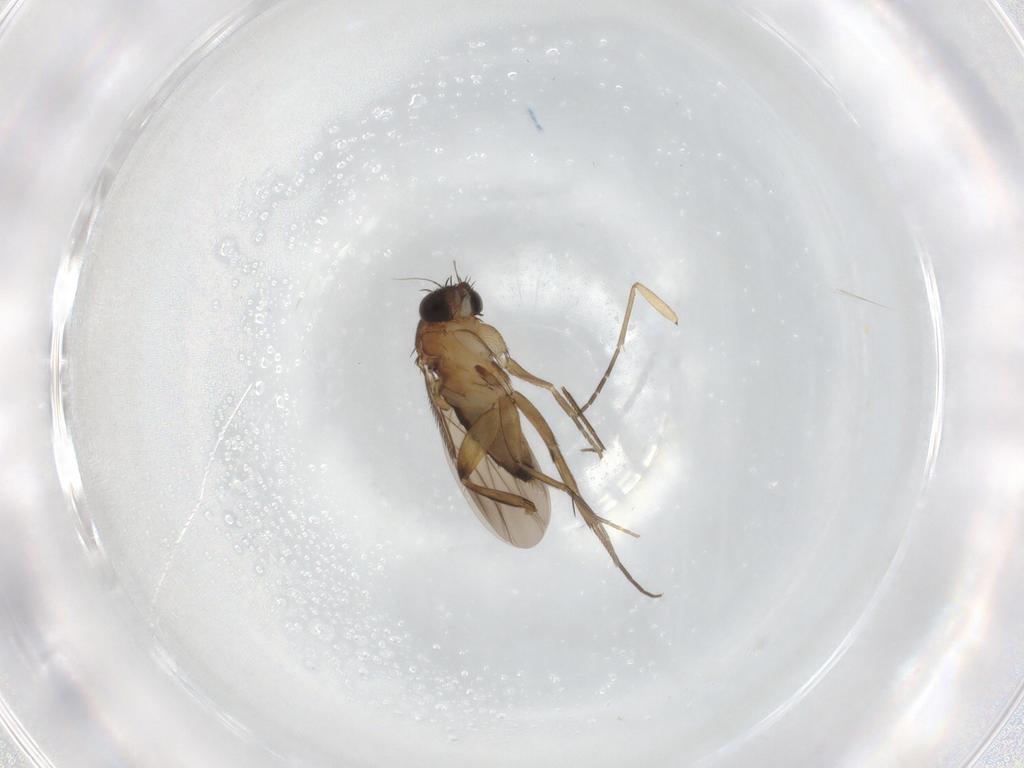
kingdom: Animalia
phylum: Arthropoda
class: Insecta
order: Diptera
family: Phoridae
